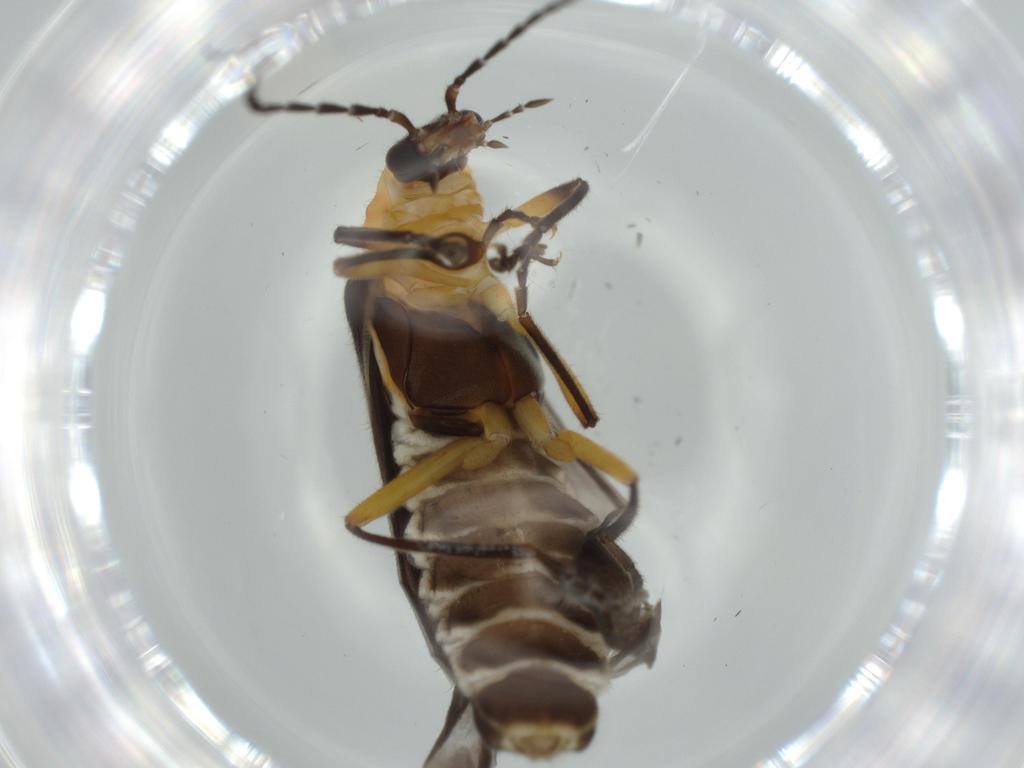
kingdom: Animalia
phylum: Arthropoda
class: Insecta
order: Coleoptera
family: Cantharidae
